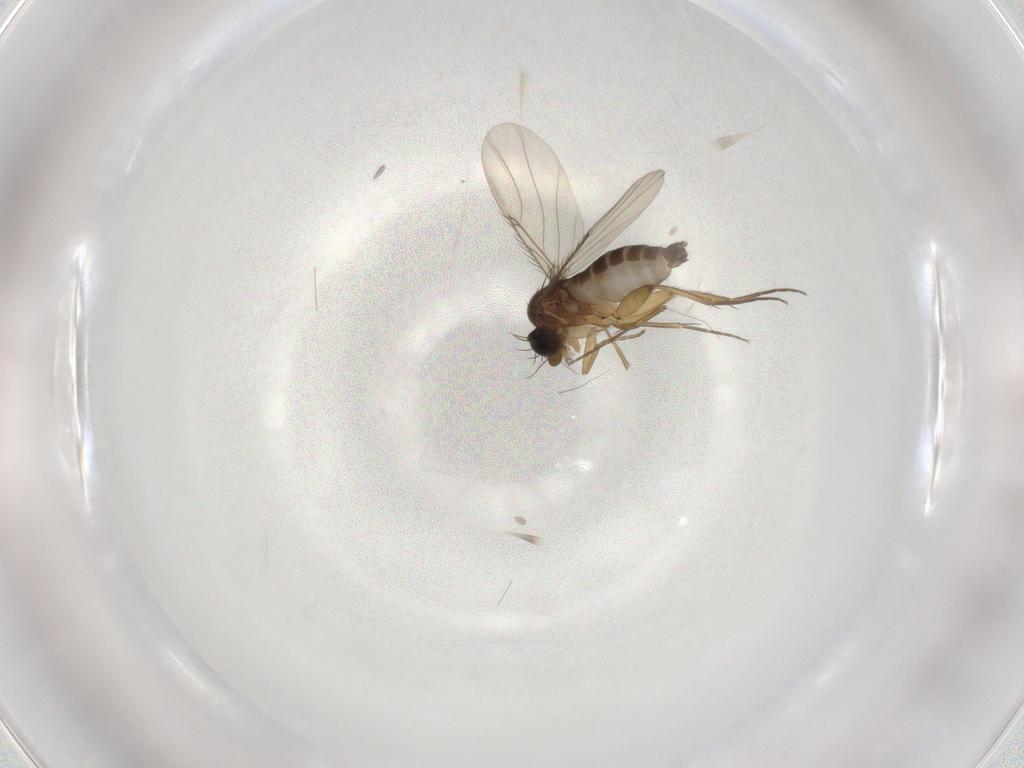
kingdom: Animalia
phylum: Arthropoda
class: Insecta
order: Diptera
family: Phoridae
